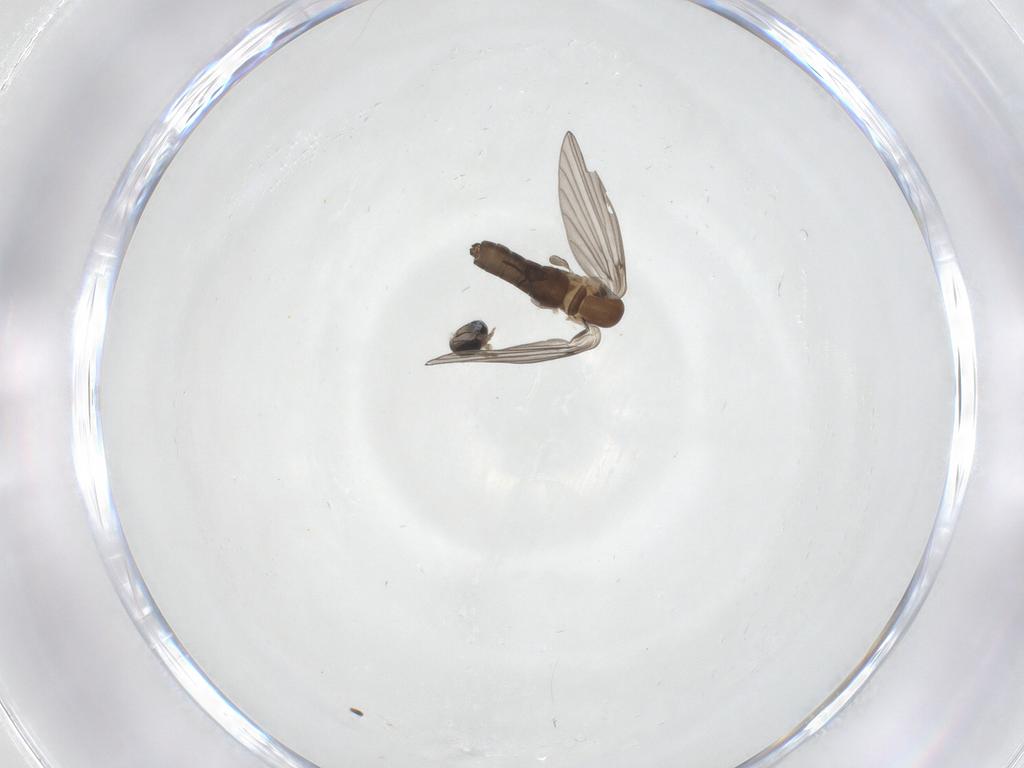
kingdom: Animalia
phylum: Arthropoda
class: Insecta
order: Diptera
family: Psychodidae
